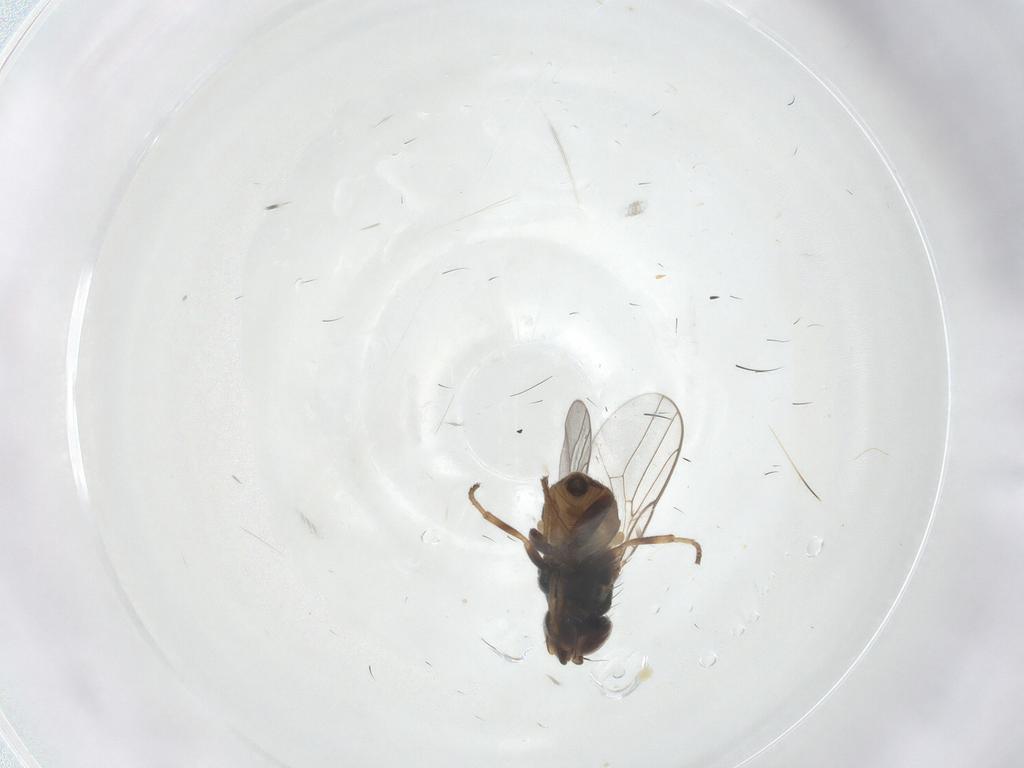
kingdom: Animalia
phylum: Arthropoda
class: Insecta
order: Diptera
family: Chloropidae
